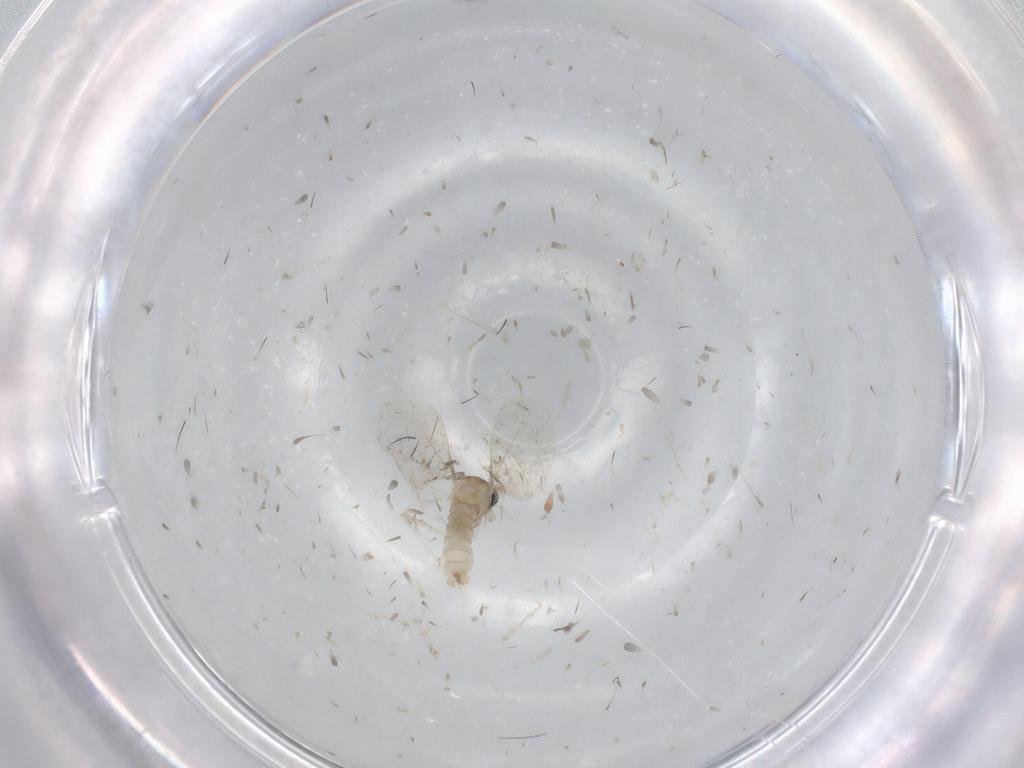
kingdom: Animalia
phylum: Arthropoda
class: Insecta
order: Diptera
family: Cecidomyiidae
